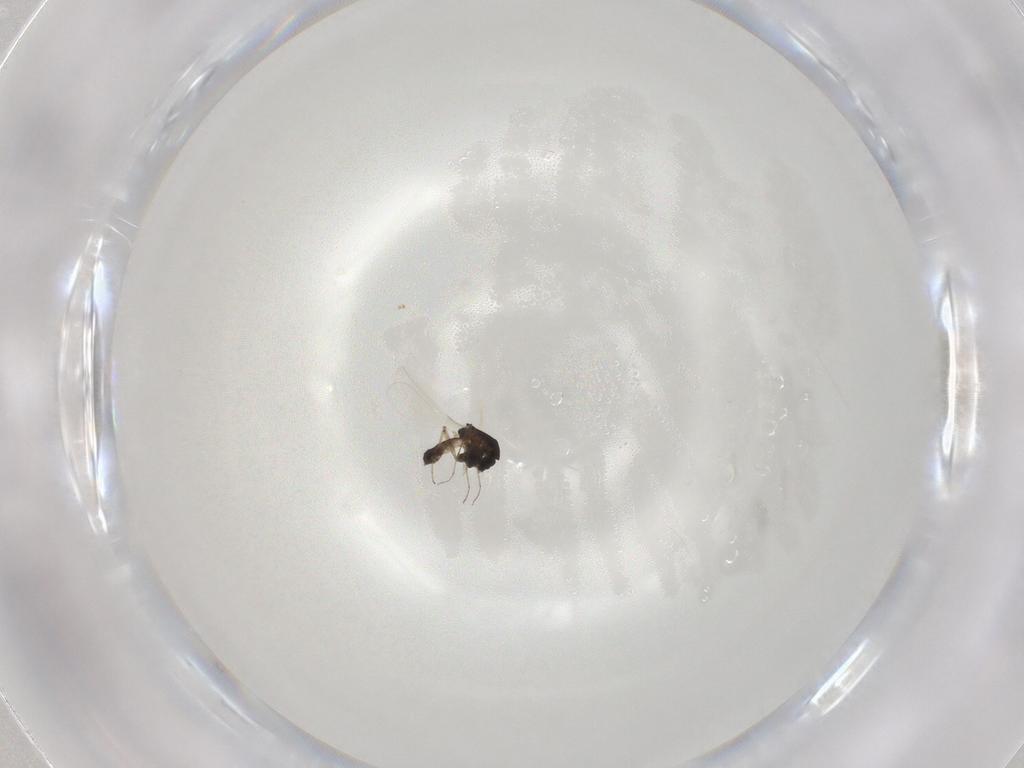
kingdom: Animalia
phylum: Arthropoda
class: Insecta
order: Diptera
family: Chironomidae
